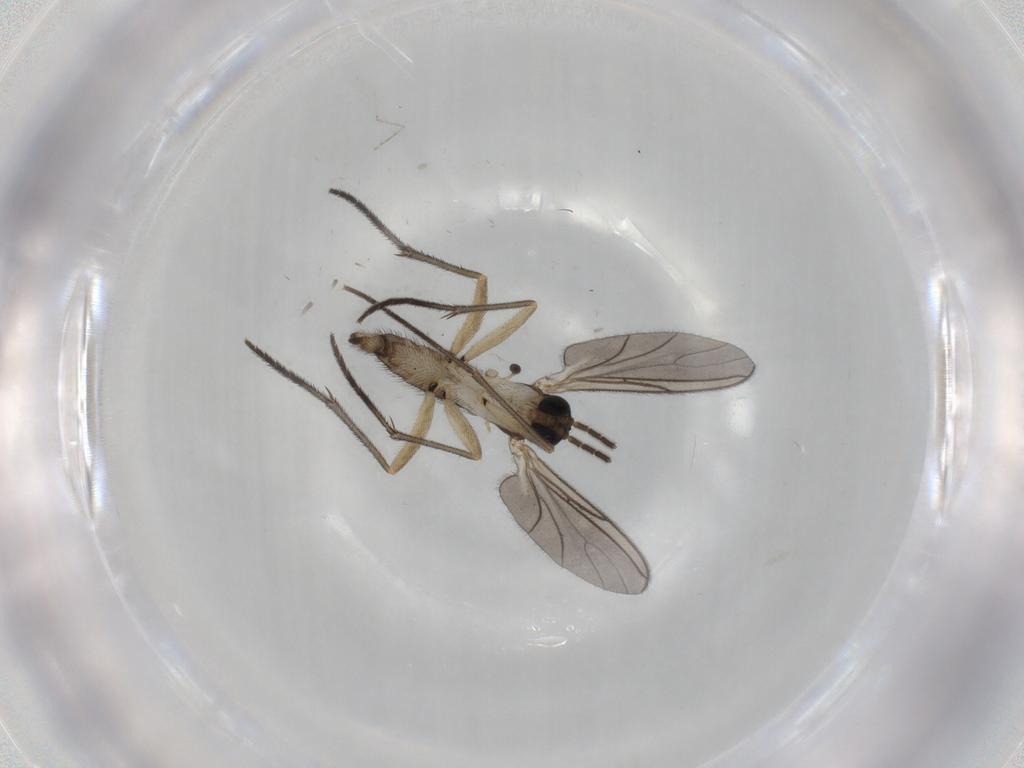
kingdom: Animalia
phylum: Arthropoda
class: Insecta
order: Diptera
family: Sciaridae
